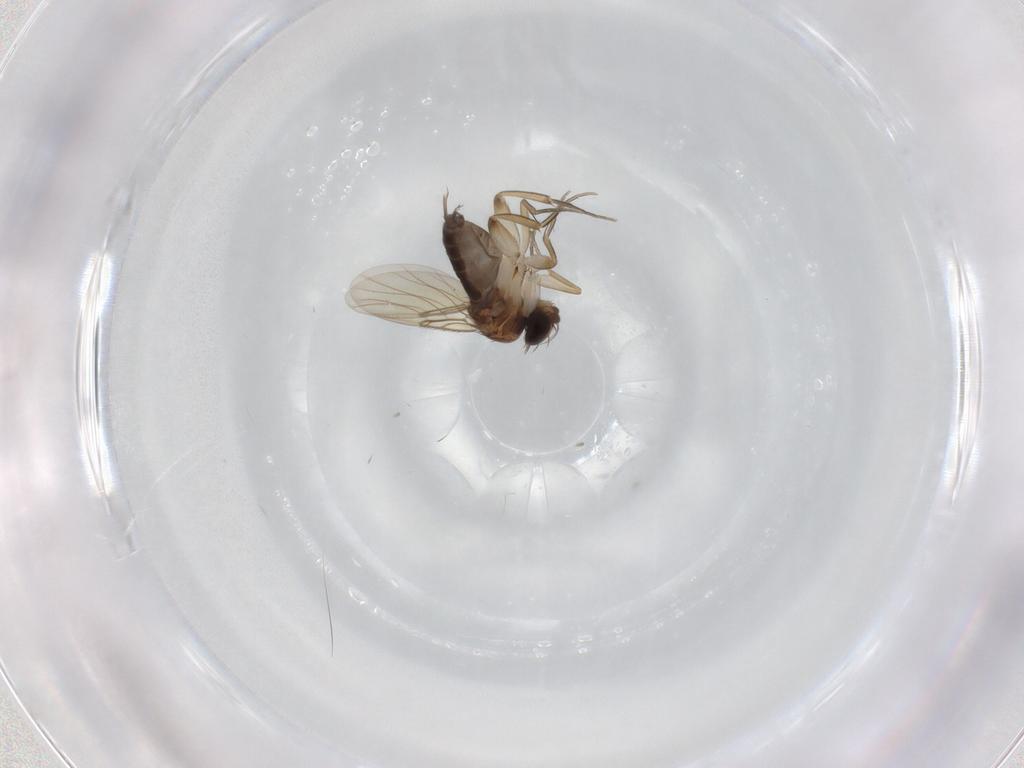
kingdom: Animalia
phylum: Arthropoda
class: Insecta
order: Diptera
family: Phoridae
